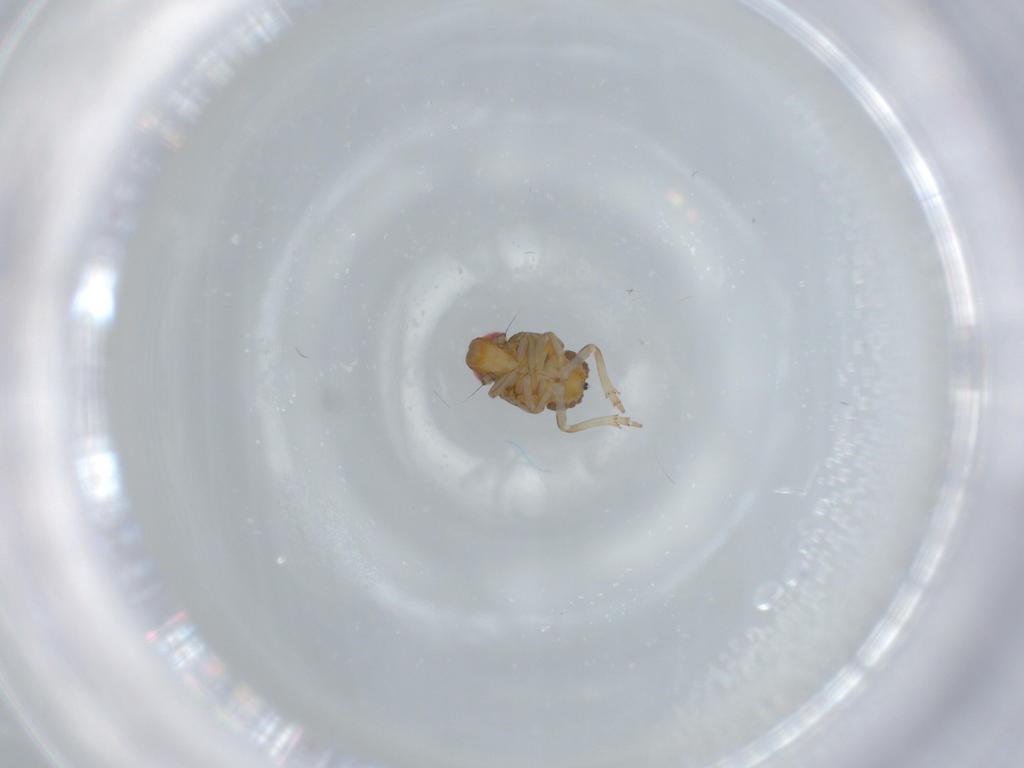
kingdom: Animalia
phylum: Arthropoda
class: Insecta
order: Hemiptera
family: Issidae
